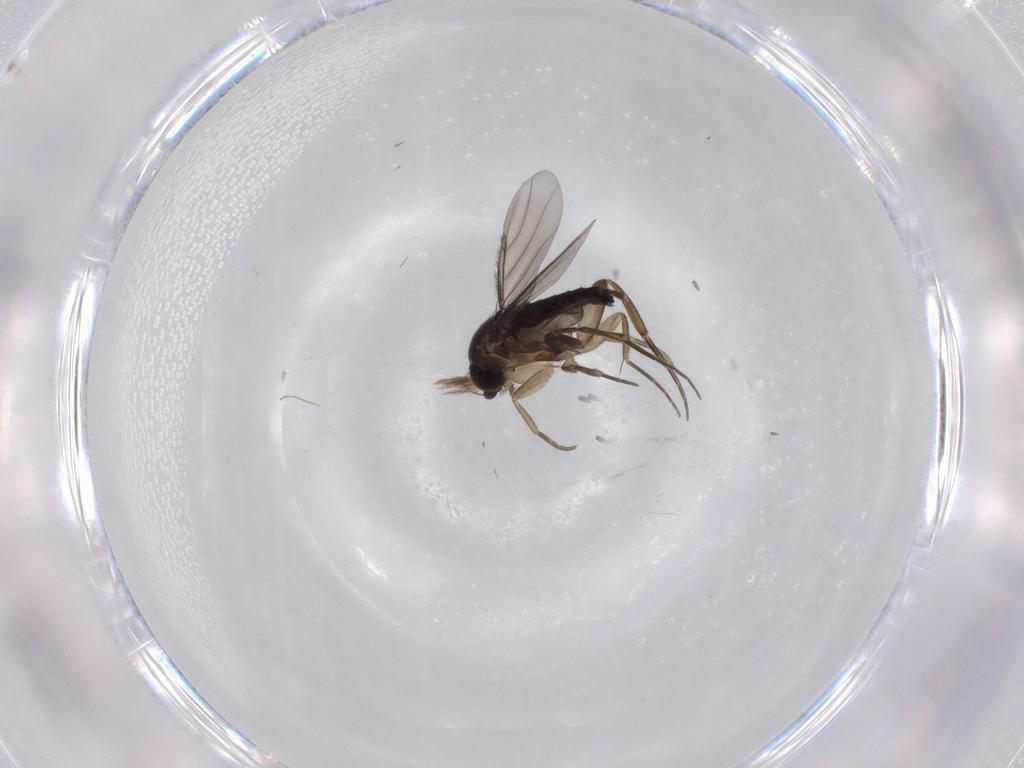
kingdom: Animalia
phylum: Arthropoda
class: Insecta
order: Diptera
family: Phoridae
